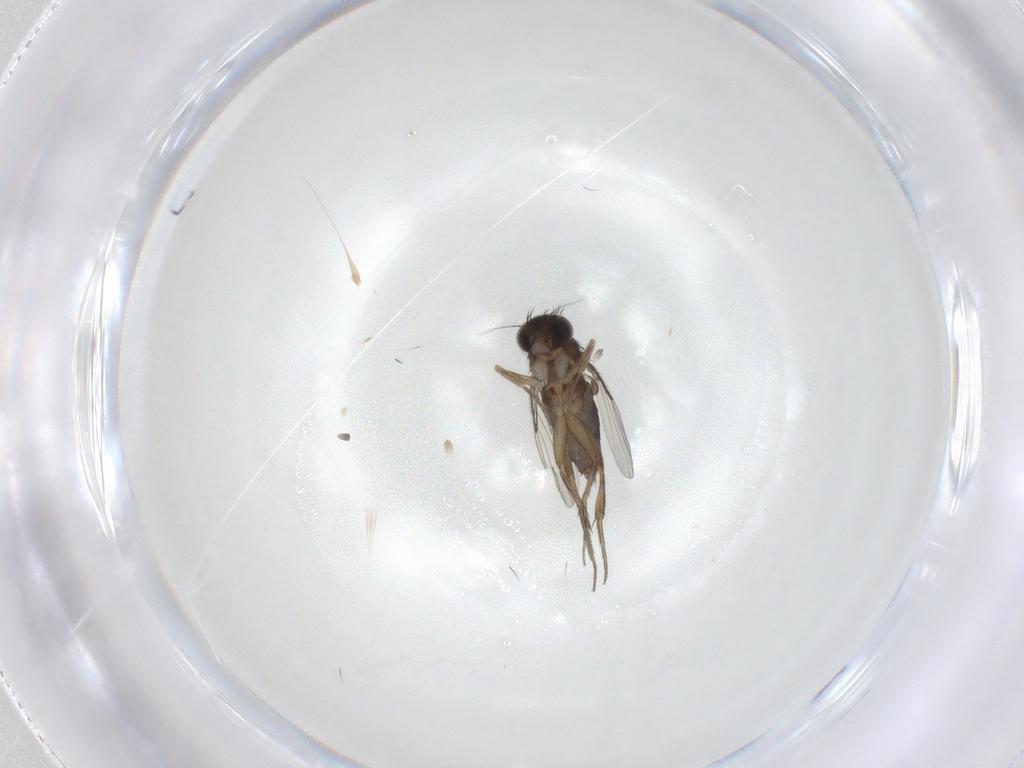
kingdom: Animalia
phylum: Arthropoda
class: Insecta
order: Diptera
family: Phoridae
